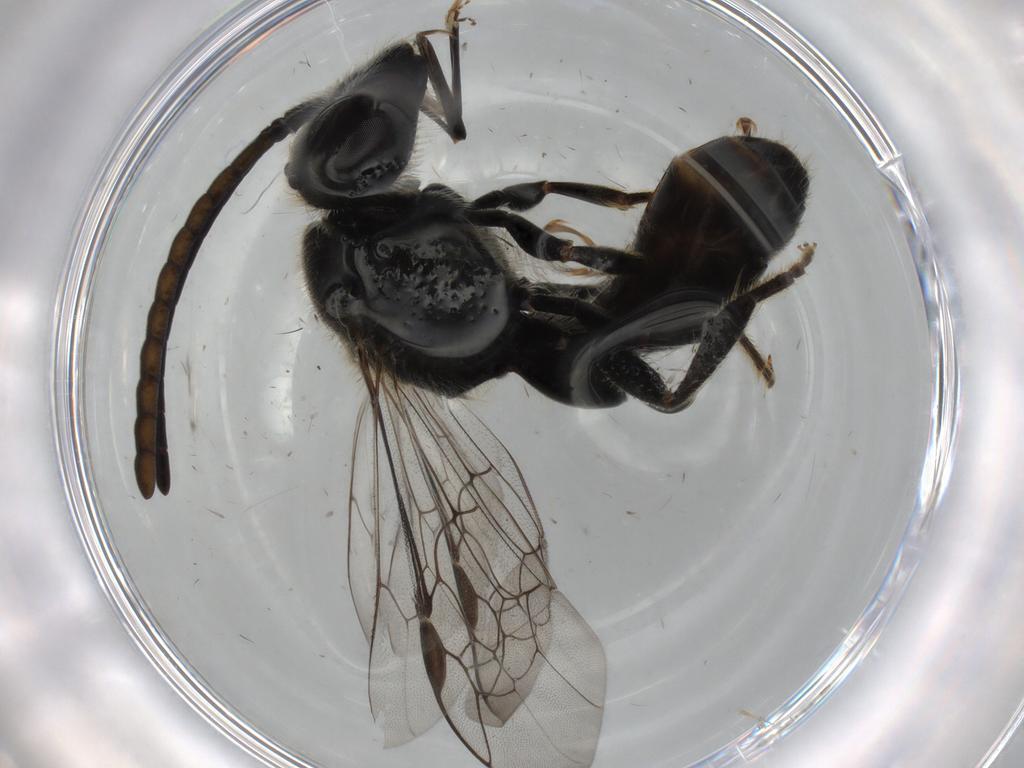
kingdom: Animalia
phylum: Arthropoda
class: Insecta
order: Hymenoptera
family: Halictidae
